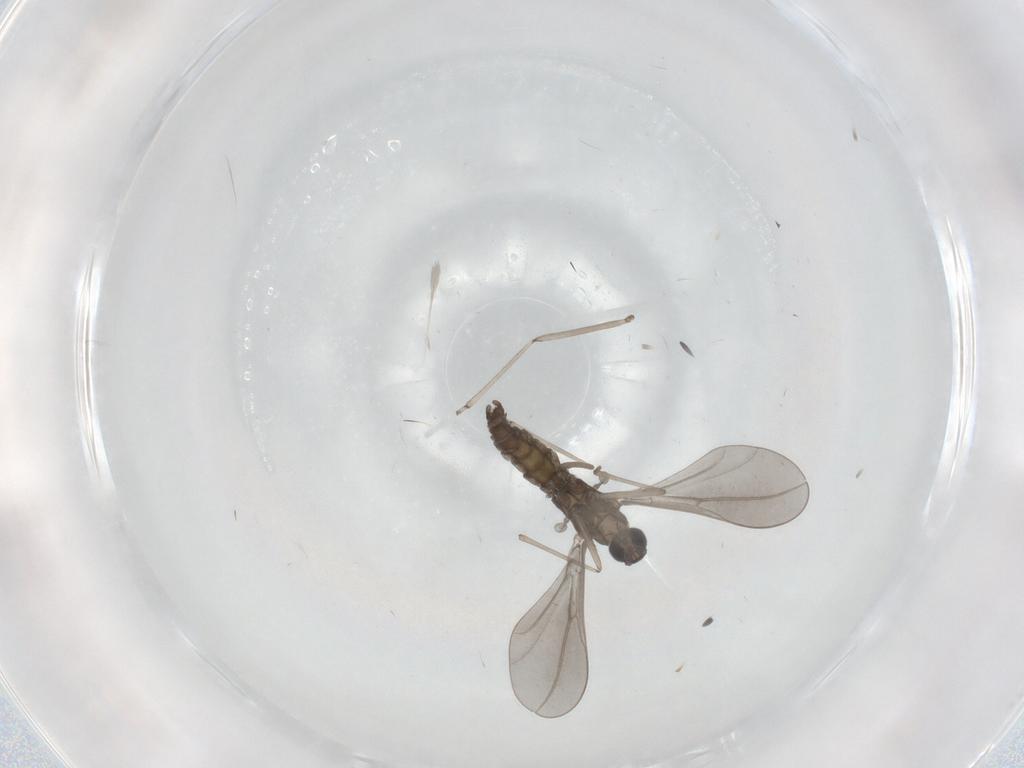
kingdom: Animalia
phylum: Arthropoda
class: Insecta
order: Diptera
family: Cecidomyiidae
